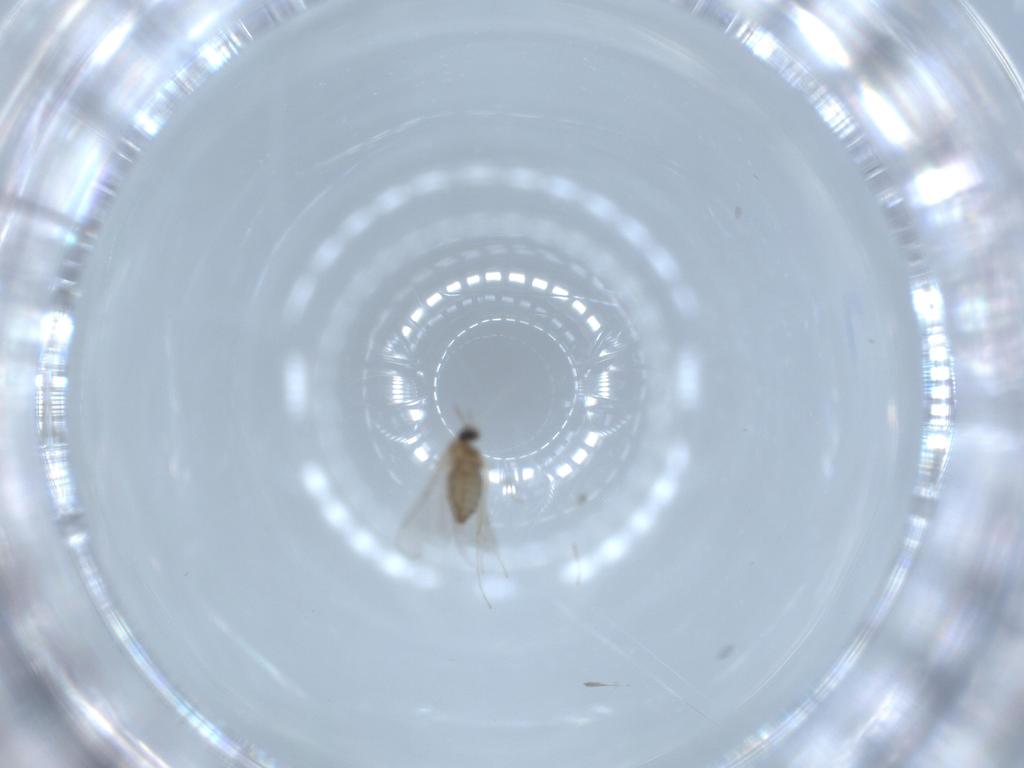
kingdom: Animalia
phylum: Arthropoda
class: Insecta
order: Diptera
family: Cecidomyiidae
